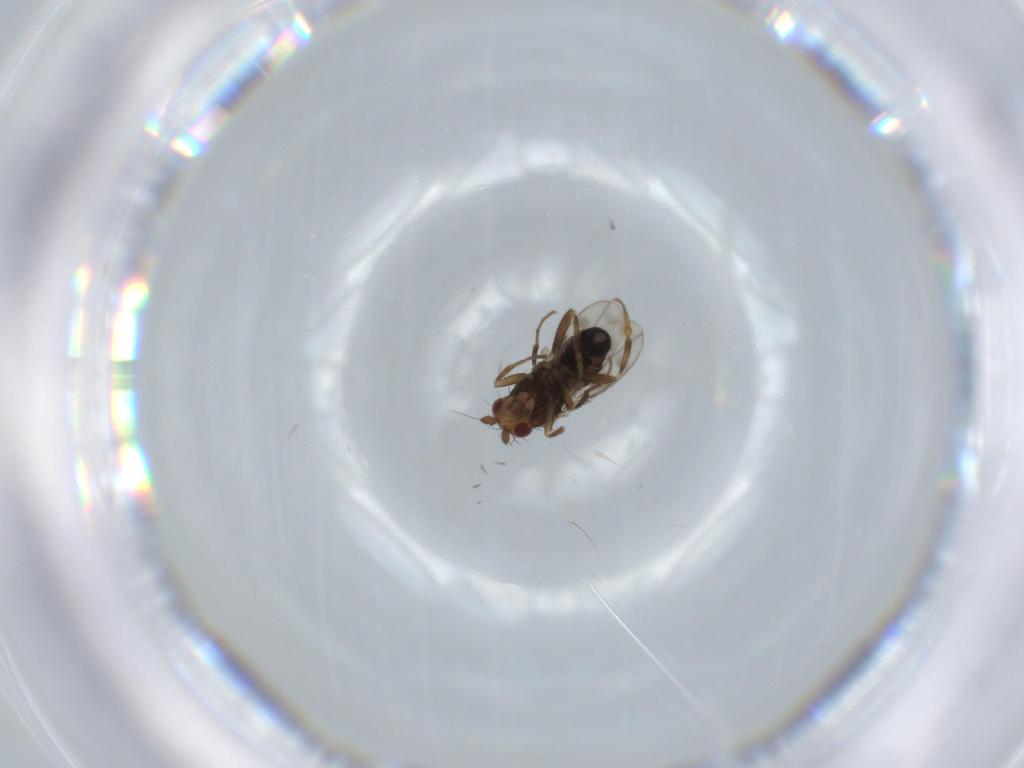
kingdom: Animalia
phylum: Arthropoda
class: Insecta
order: Diptera
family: Sphaeroceridae
